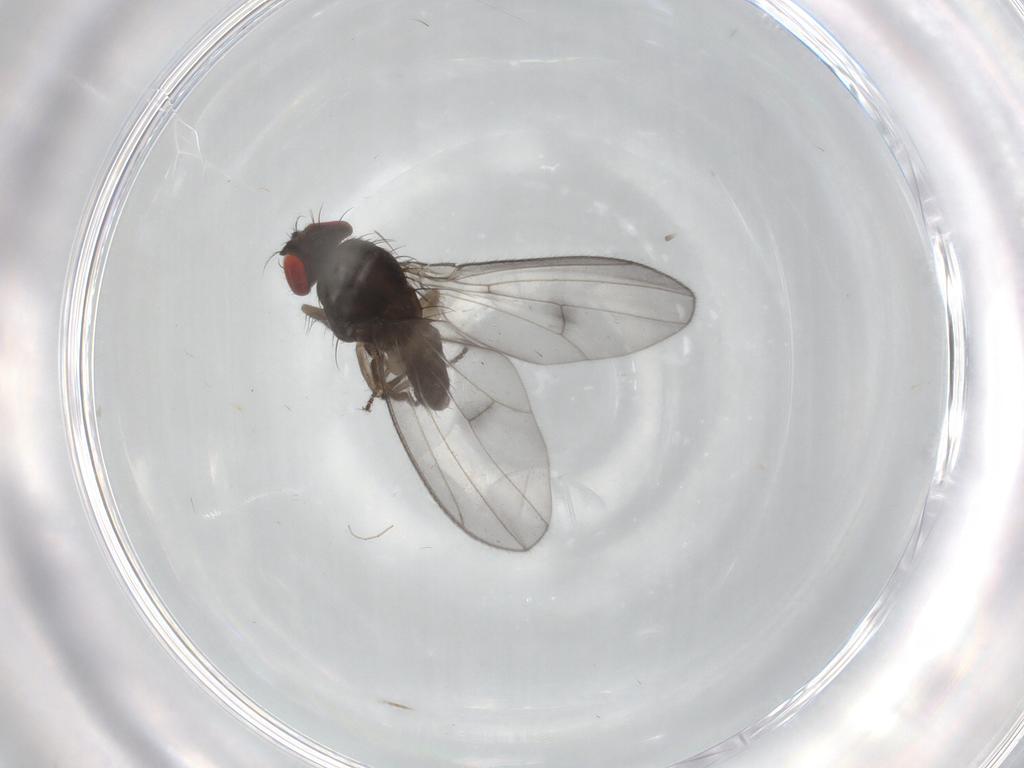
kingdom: Animalia
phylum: Arthropoda
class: Insecta
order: Diptera
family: Drosophilidae
